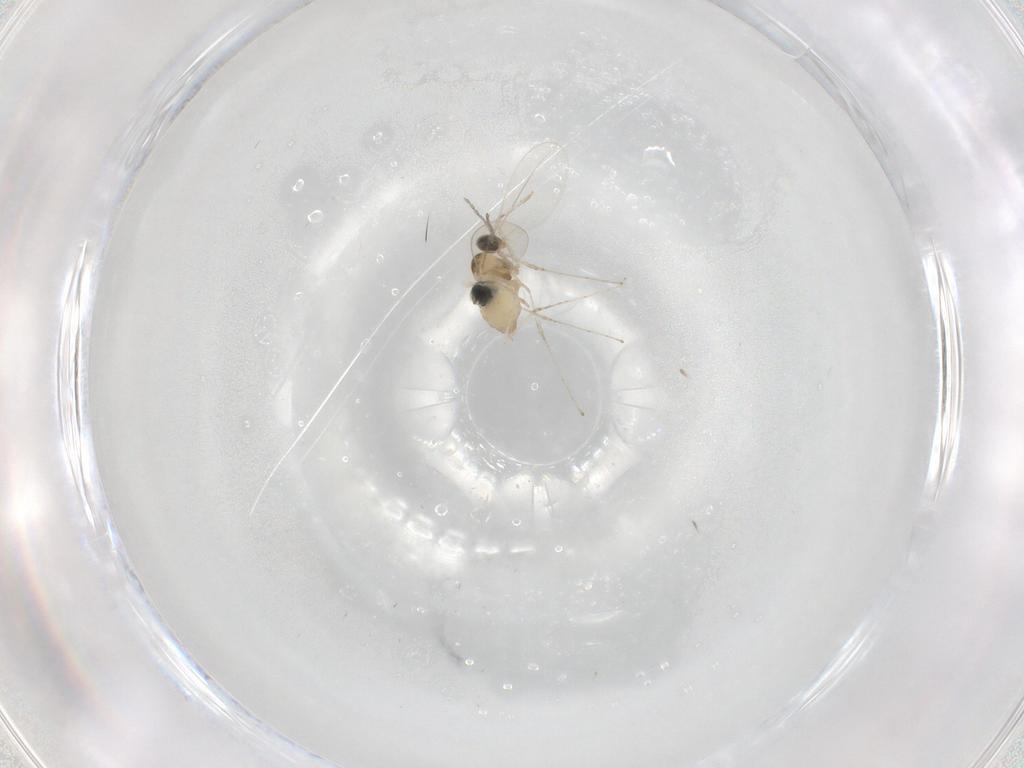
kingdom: Animalia
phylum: Arthropoda
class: Insecta
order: Diptera
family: Cecidomyiidae
